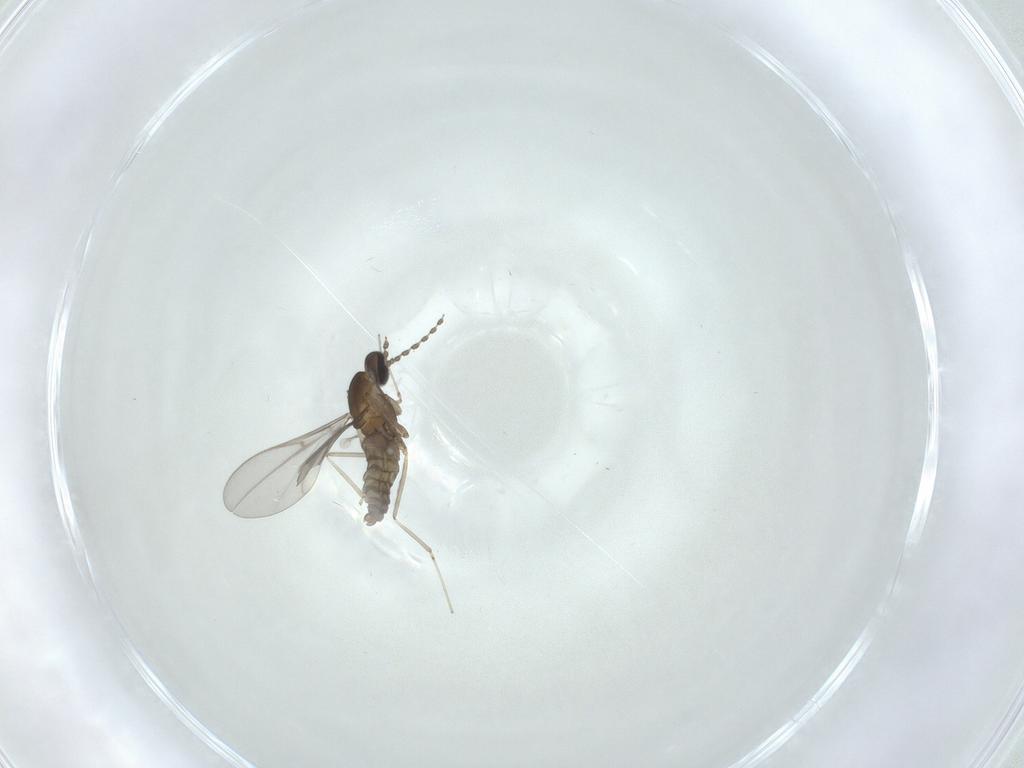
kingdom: Animalia
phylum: Arthropoda
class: Insecta
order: Diptera
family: Cecidomyiidae
